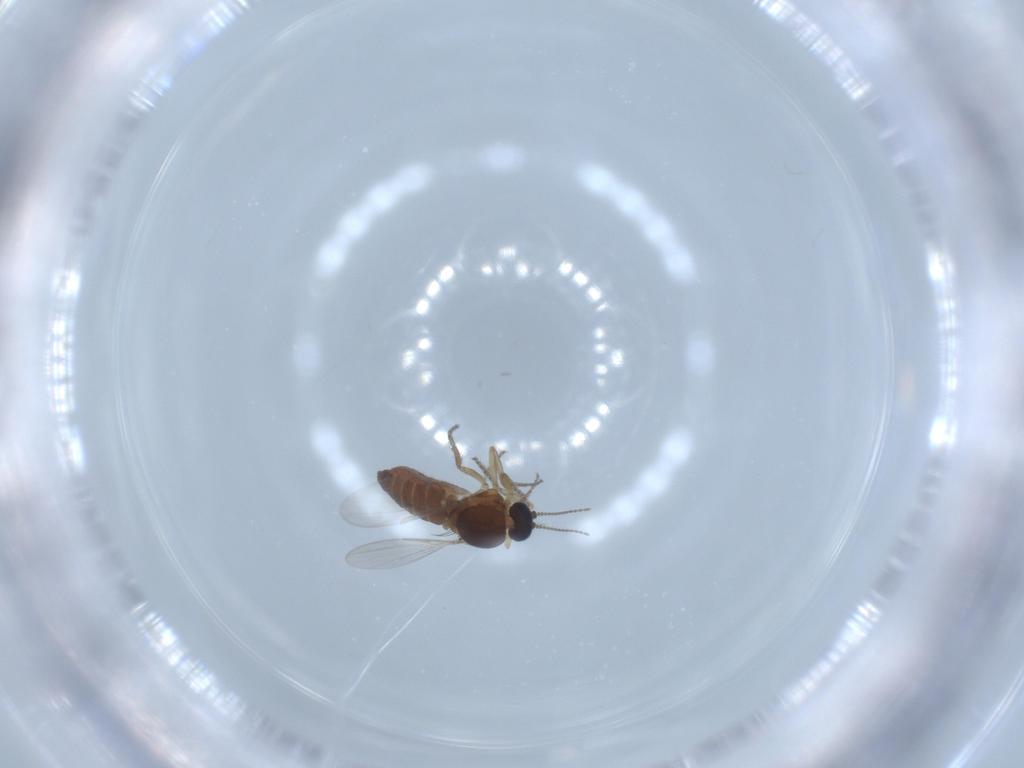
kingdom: Animalia
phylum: Arthropoda
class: Insecta
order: Diptera
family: Ceratopogonidae
